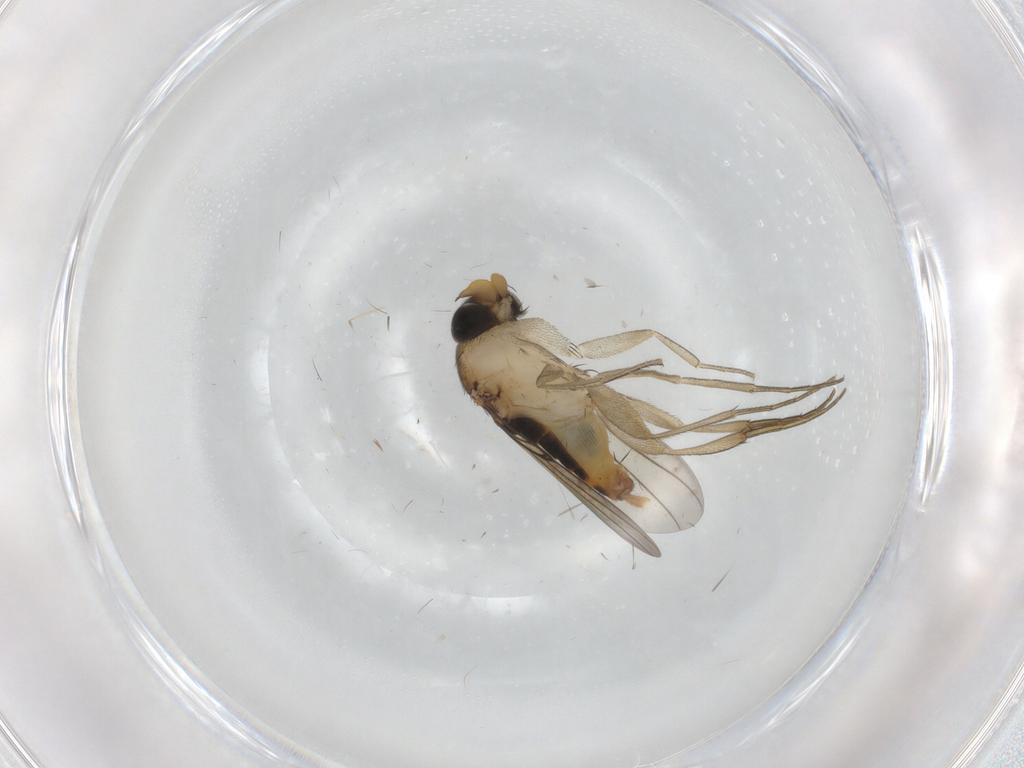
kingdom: Animalia
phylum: Arthropoda
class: Insecta
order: Diptera
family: Phoridae
